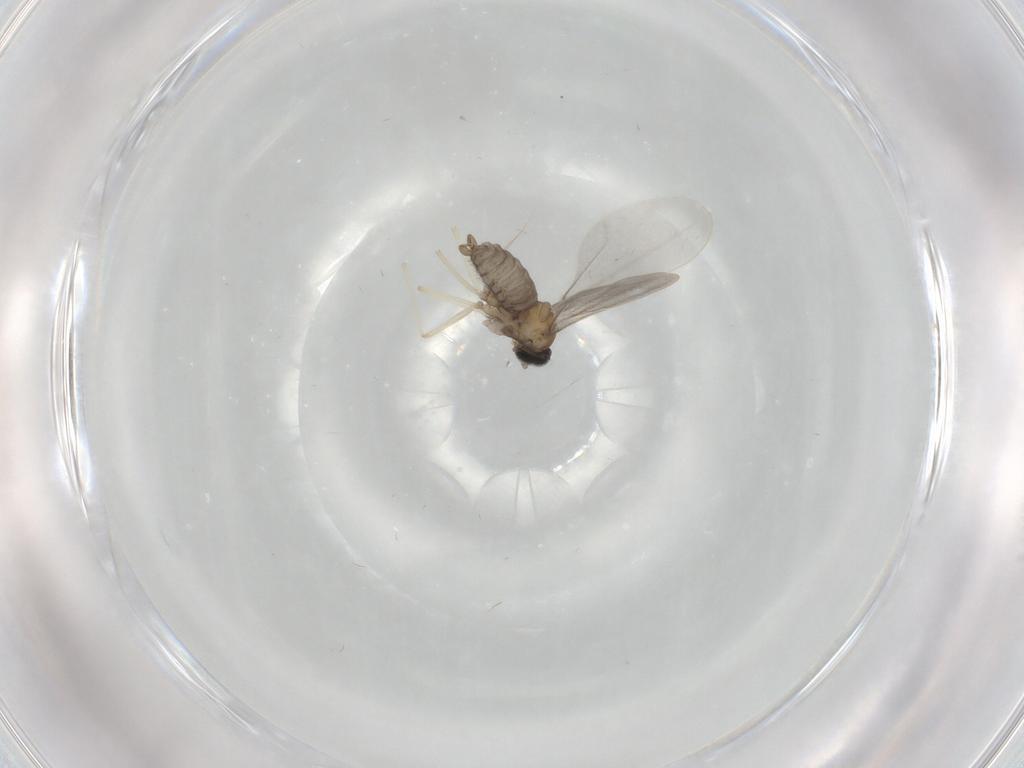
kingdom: Animalia
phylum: Arthropoda
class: Insecta
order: Diptera
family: Cecidomyiidae
